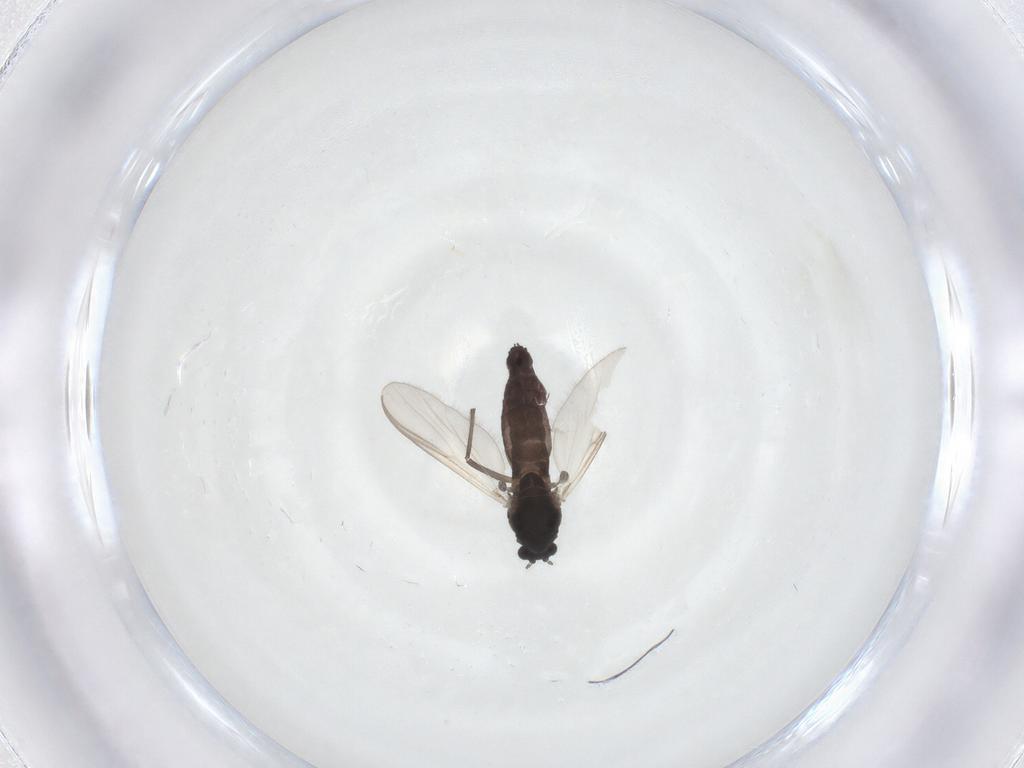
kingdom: Animalia
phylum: Arthropoda
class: Insecta
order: Diptera
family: Chironomidae
